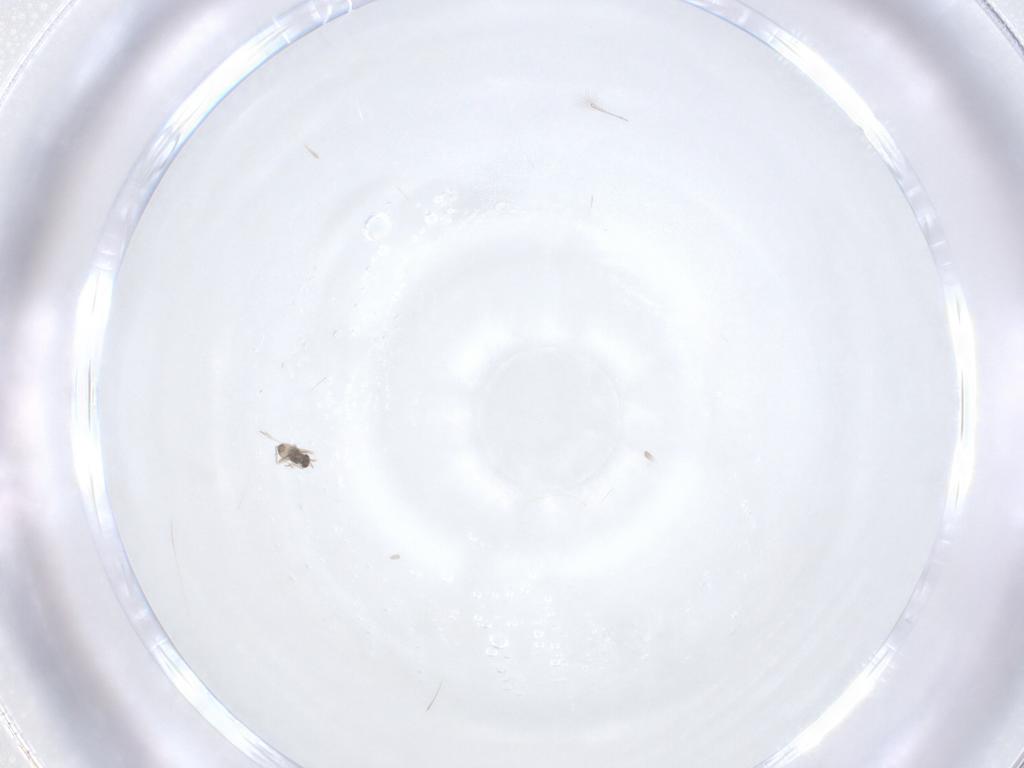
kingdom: Animalia
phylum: Arthropoda
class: Insecta
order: Hymenoptera
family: Mymaridae
